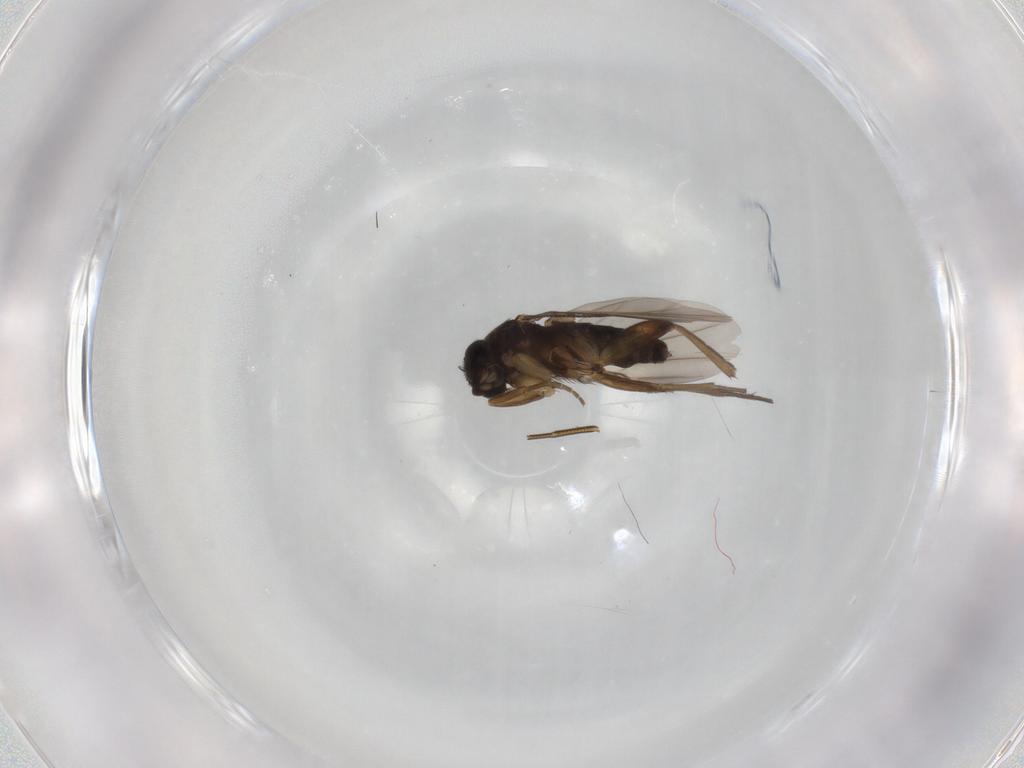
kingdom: Animalia
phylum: Arthropoda
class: Insecta
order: Diptera
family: Phoridae
